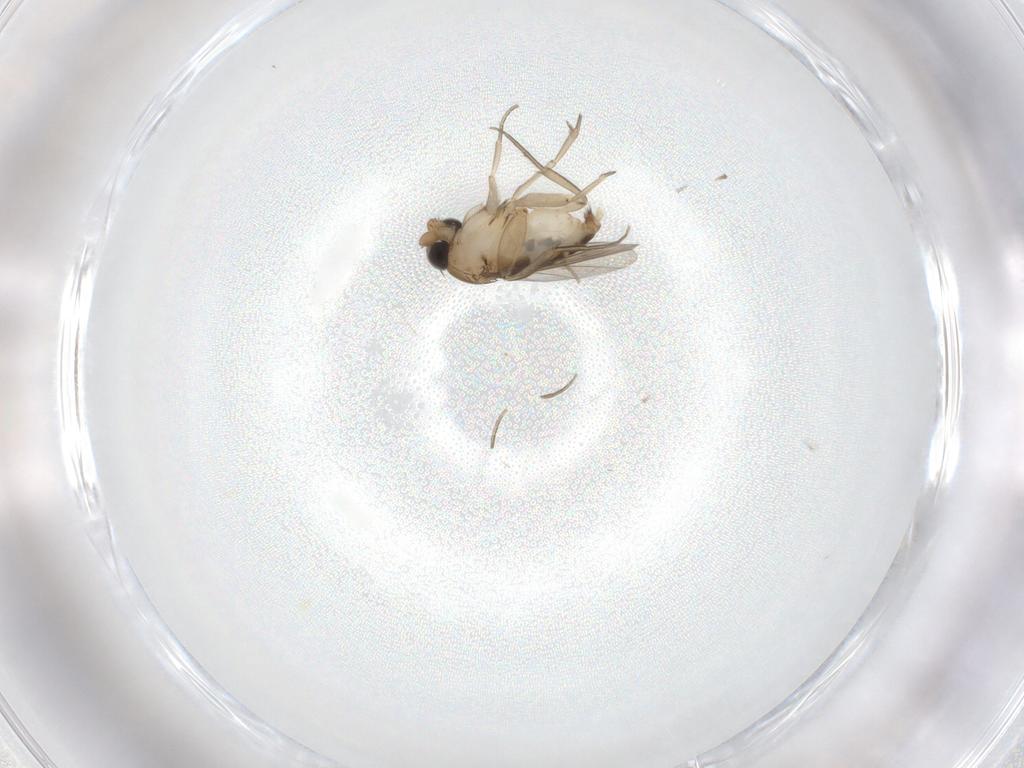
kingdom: Animalia
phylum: Arthropoda
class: Insecta
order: Diptera
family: Phoridae
